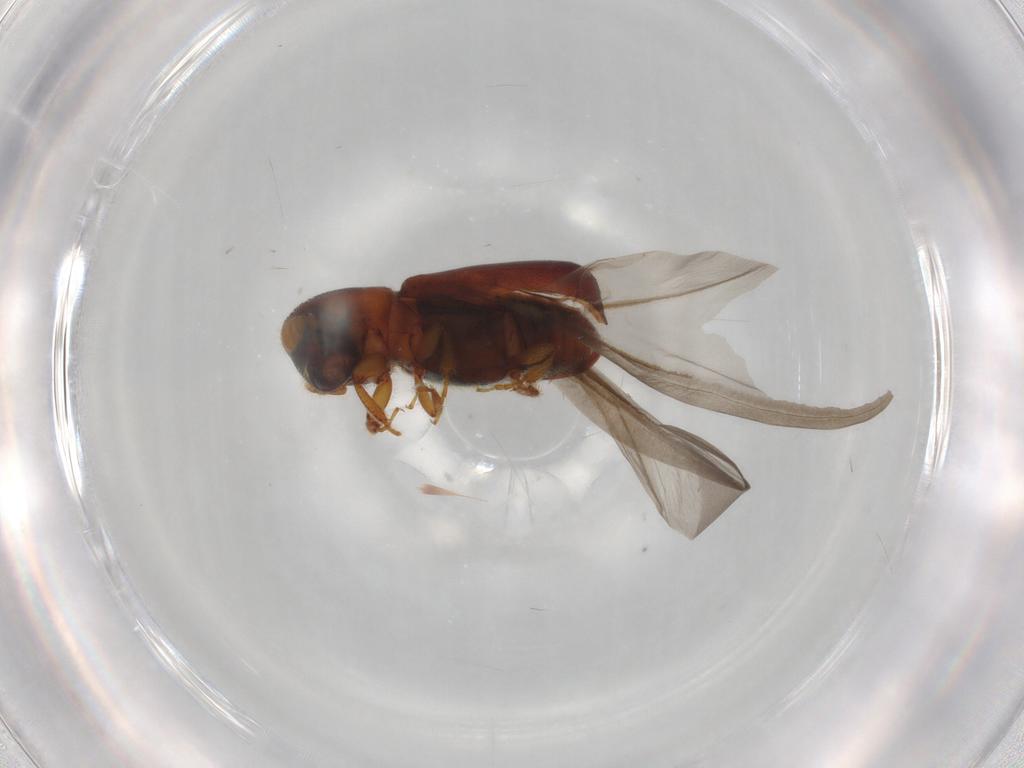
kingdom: Animalia
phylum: Arthropoda
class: Insecta
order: Coleoptera
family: Curculionidae
